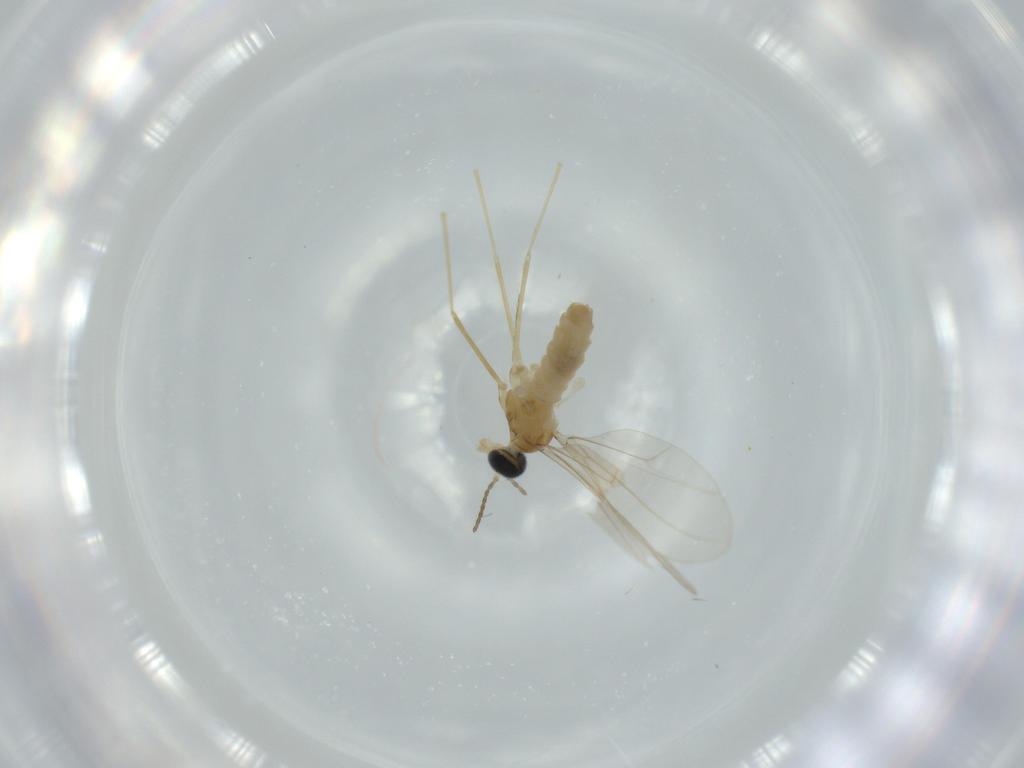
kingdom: Animalia
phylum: Arthropoda
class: Insecta
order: Diptera
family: Cecidomyiidae
